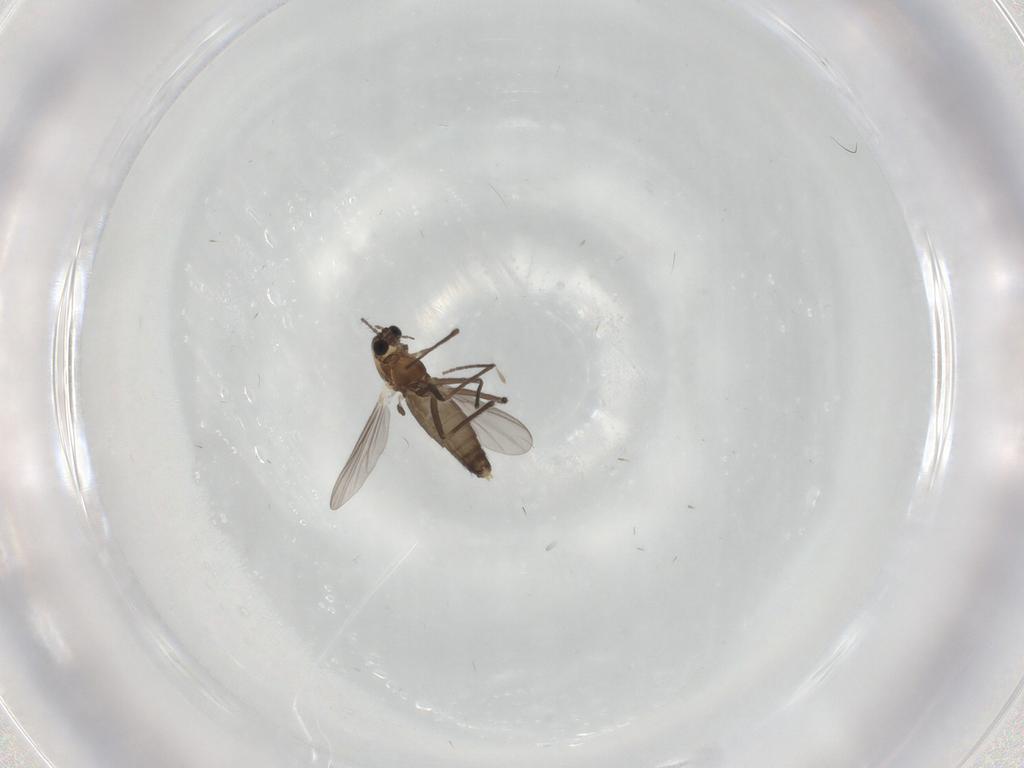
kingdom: Animalia
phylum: Arthropoda
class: Insecta
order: Diptera
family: Chironomidae
